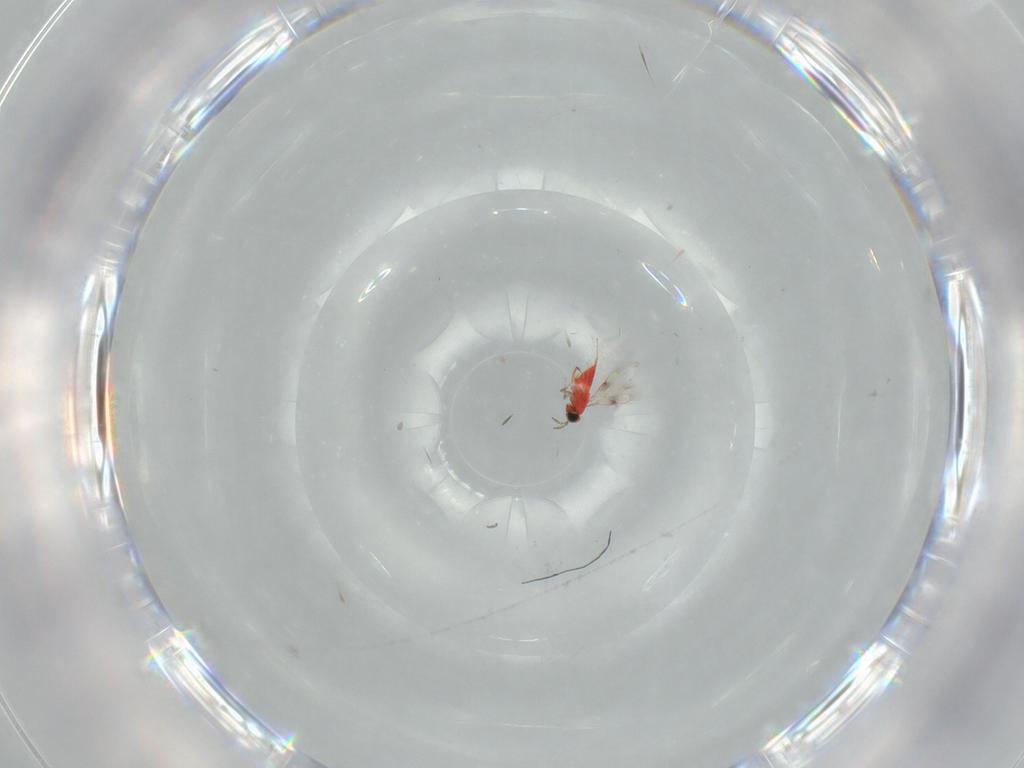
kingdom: Animalia
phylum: Arthropoda
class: Insecta
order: Hymenoptera
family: Trichogrammatidae
